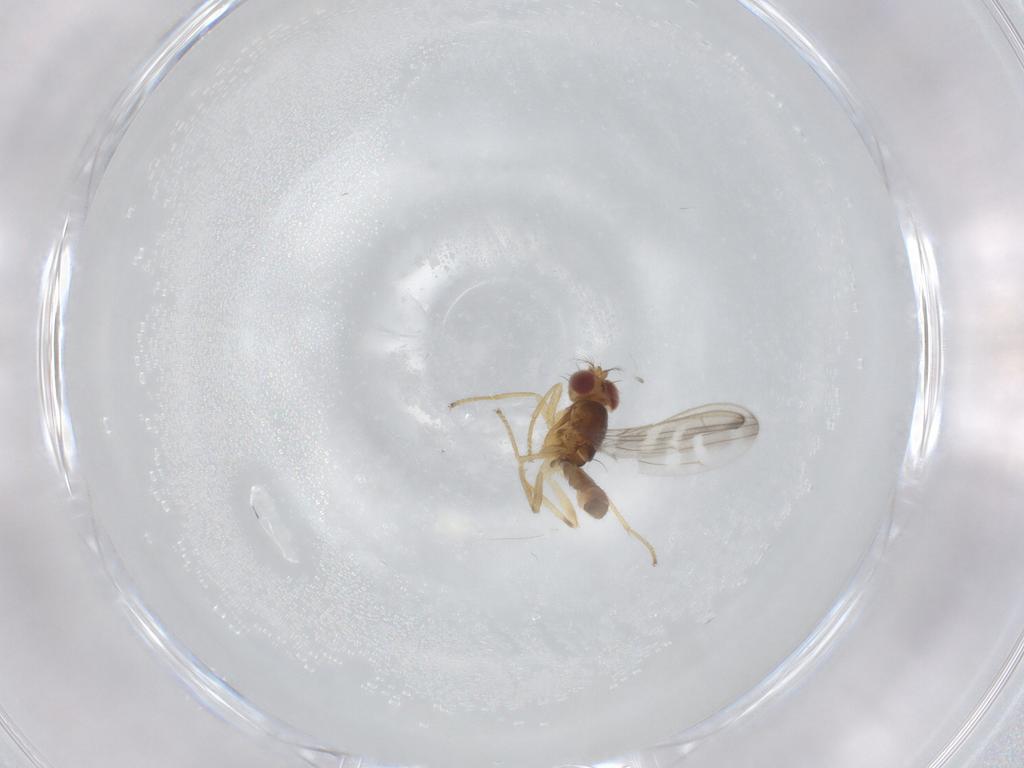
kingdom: Animalia
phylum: Arthropoda
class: Insecta
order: Diptera
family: Periscelididae
